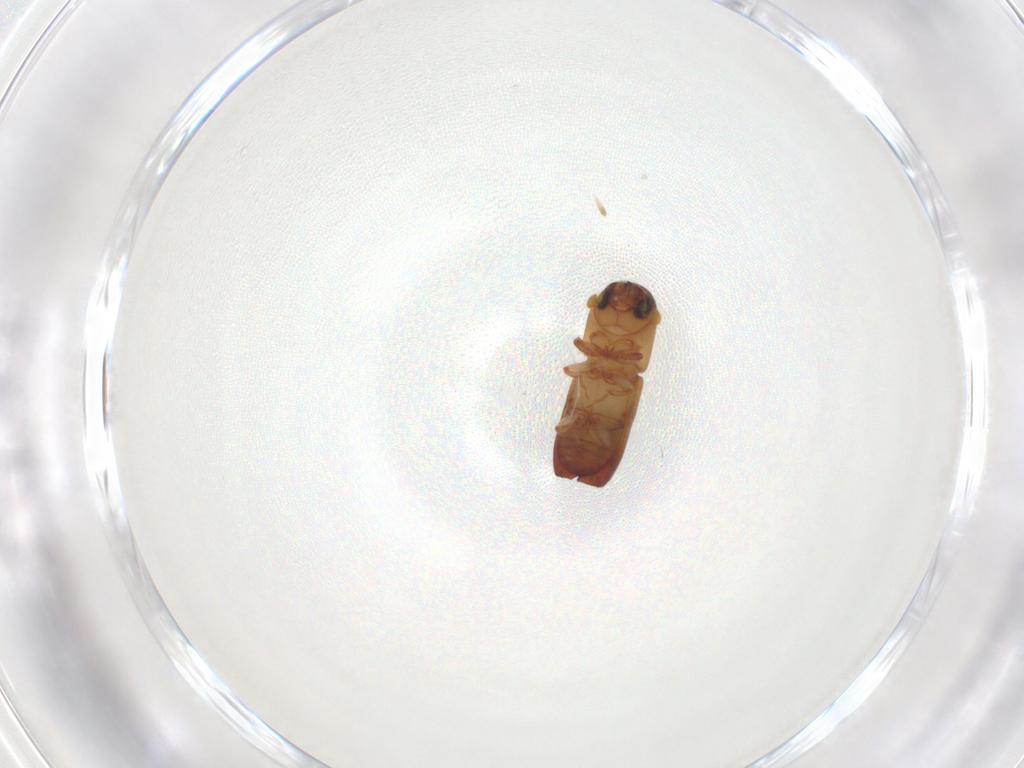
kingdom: Animalia
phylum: Arthropoda
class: Insecta
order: Coleoptera
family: Curculionidae
